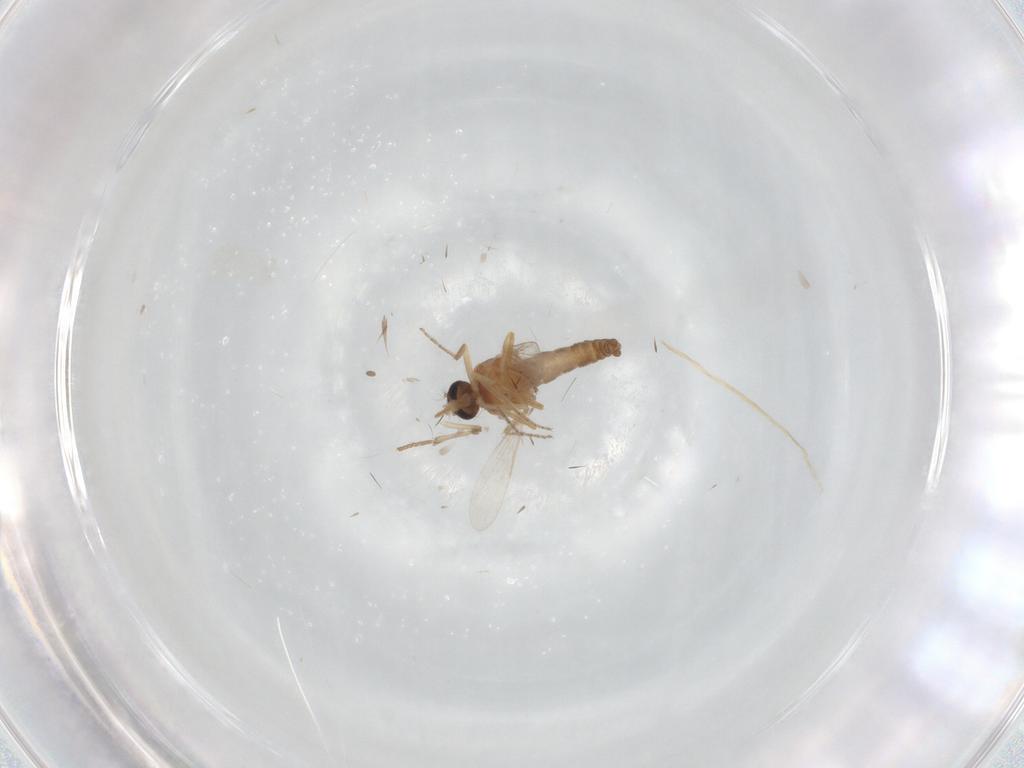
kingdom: Animalia
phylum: Arthropoda
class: Insecta
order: Diptera
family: Ceratopogonidae
